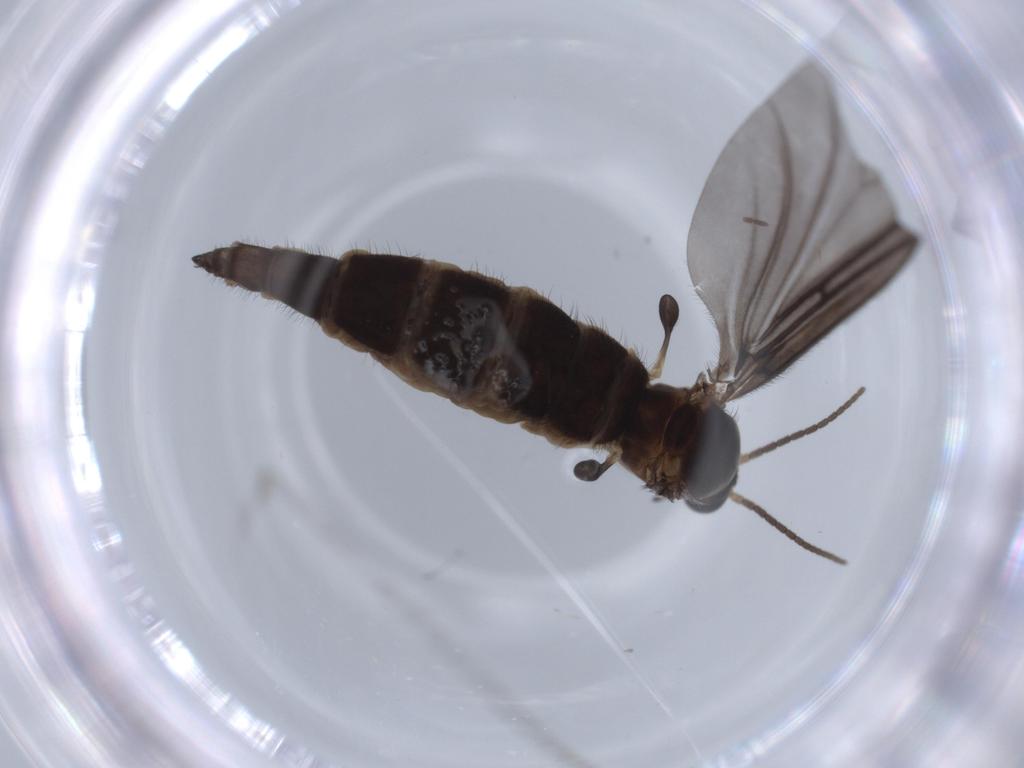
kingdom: Animalia
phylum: Arthropoda
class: Insecta
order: Diptera
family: Sciaridae
